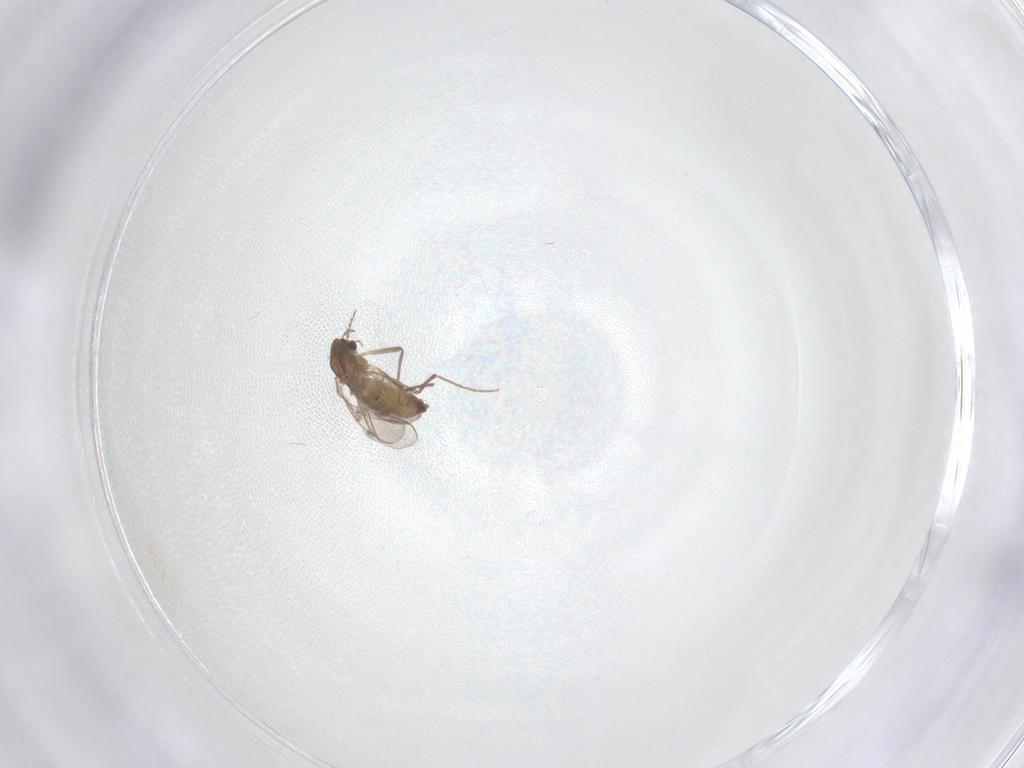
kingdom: Animalia
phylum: Arthropoda
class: Insecta
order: Diptera
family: Chironomidae
